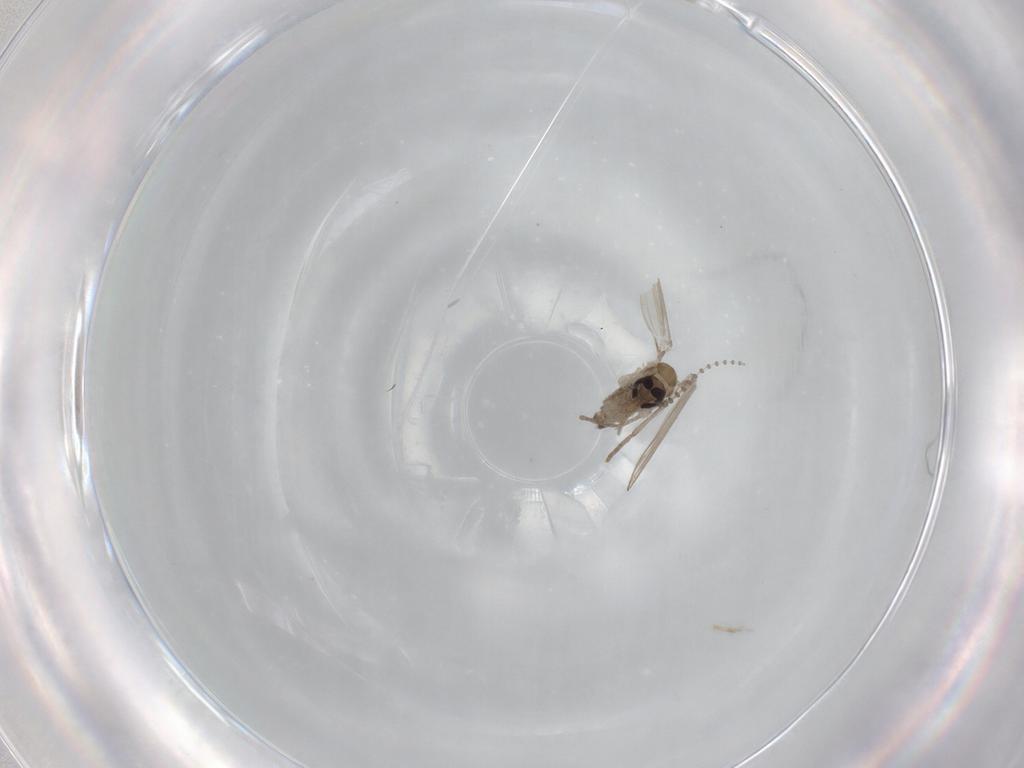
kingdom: Animalia
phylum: Arthropoda
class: Insecta
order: Diptera
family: Psychodidae
